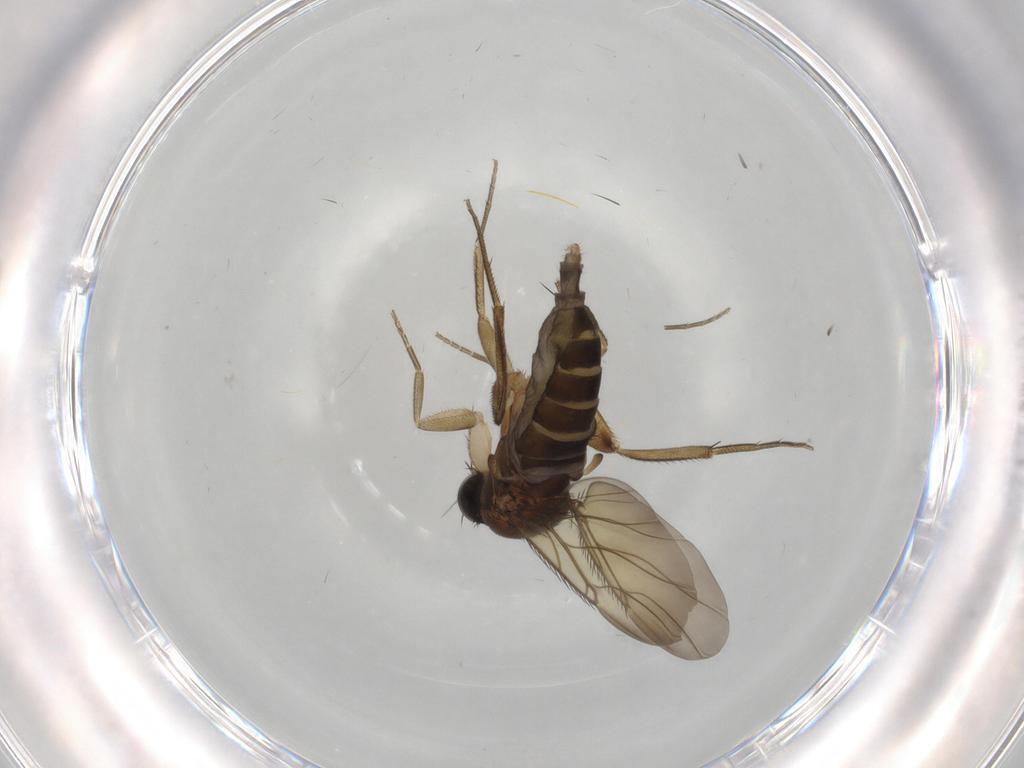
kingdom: Animalia
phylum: Arthropoda
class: Insecta
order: Diptera
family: Phoridae
